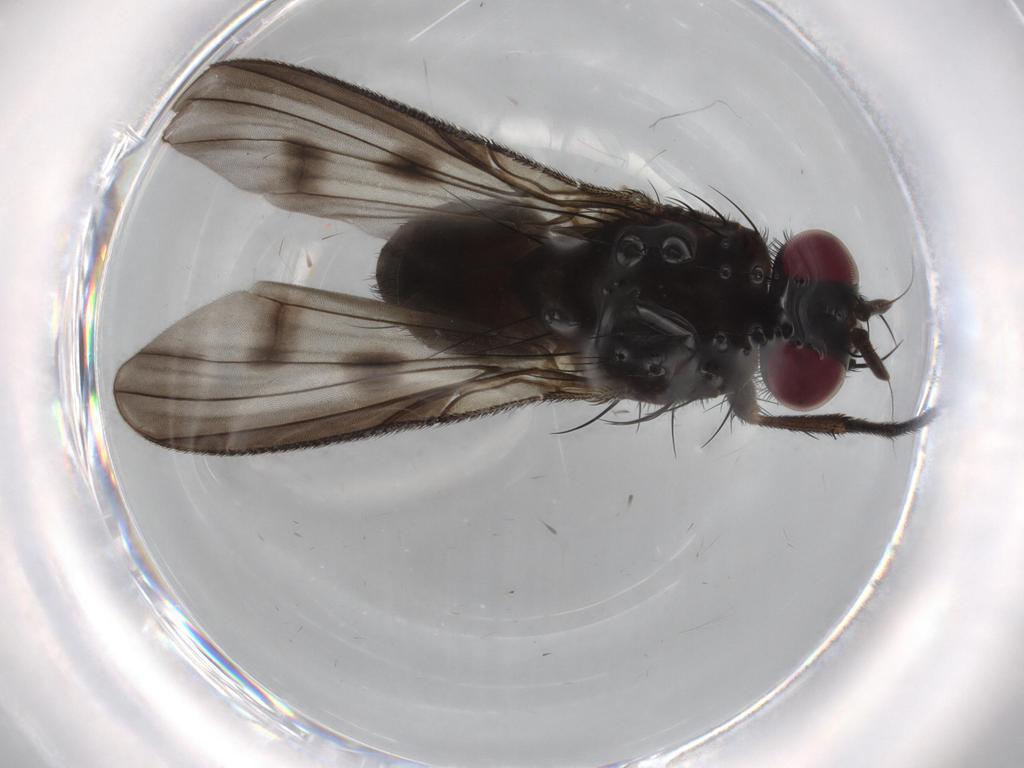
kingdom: Animalia
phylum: Arthropoda
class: Insecta
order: Diptera
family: Muscidae
